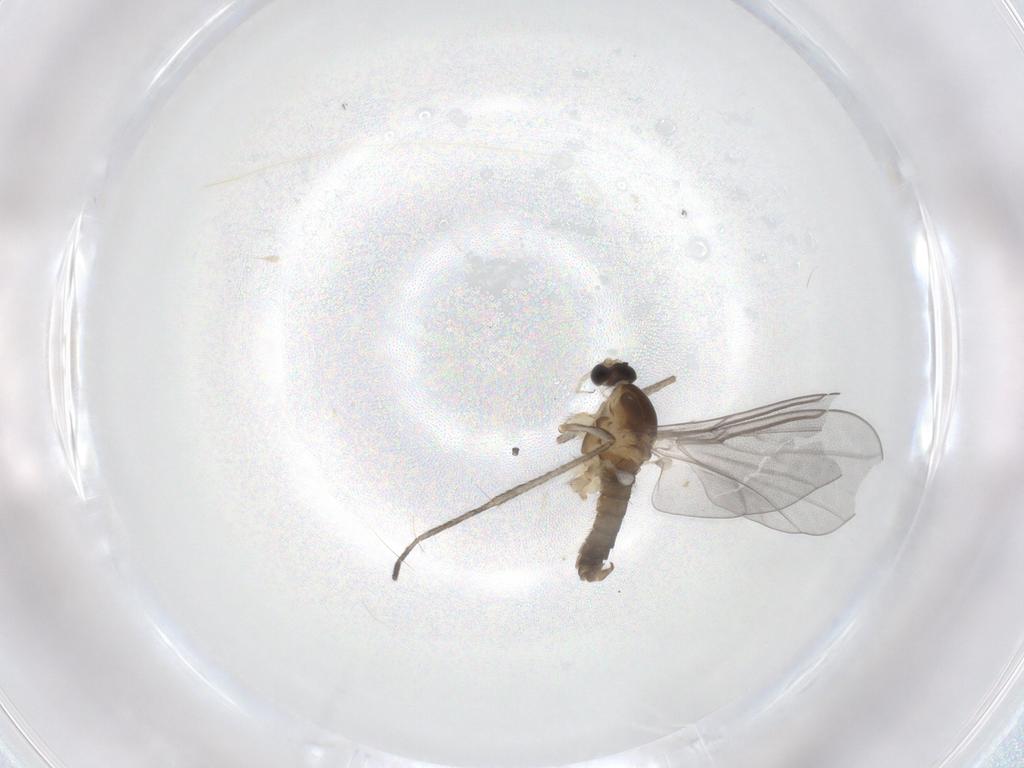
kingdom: Animalia
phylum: Arthropoda
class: Insecta
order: Diptera
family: Cecidomyiidae
